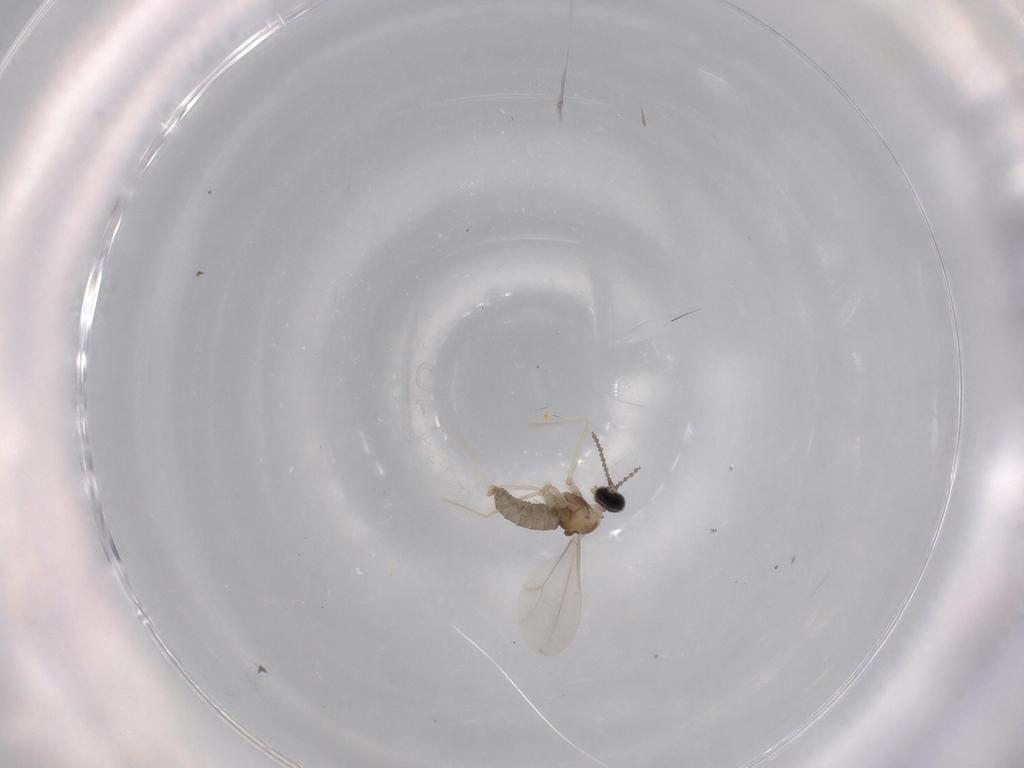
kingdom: Animalia
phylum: Arthropoda
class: Insecta
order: Diptera
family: Cecidomyiidae
